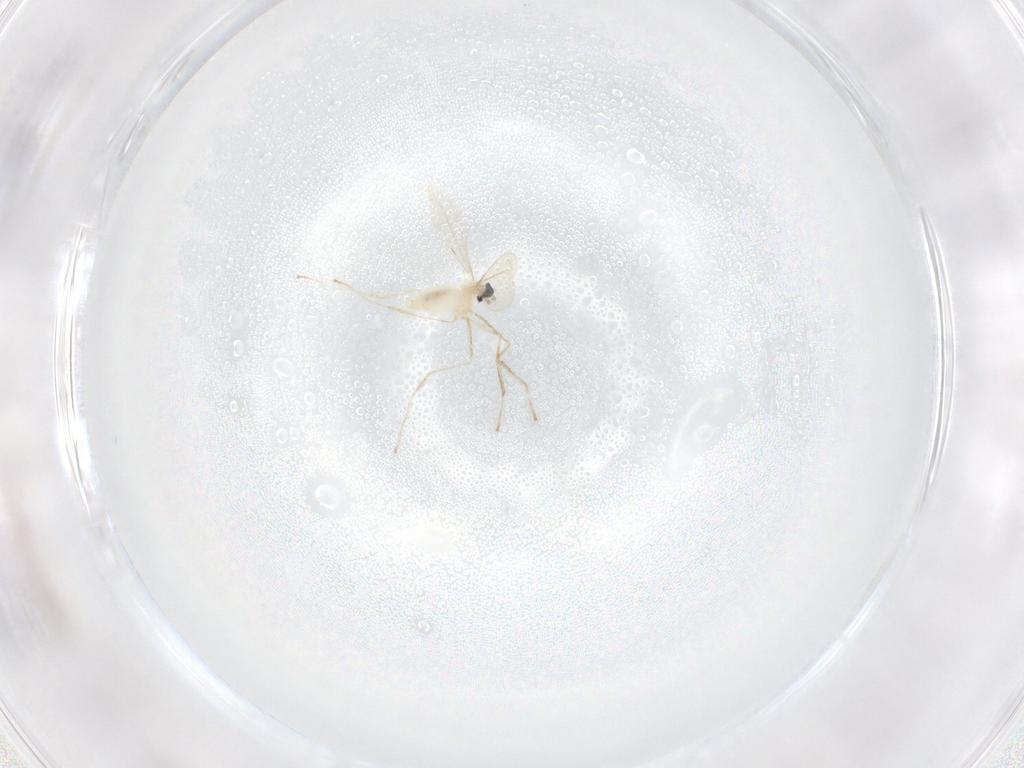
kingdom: Animalia
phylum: Arthropoda
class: Insecta
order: Diptera
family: Cecidomyiidae
